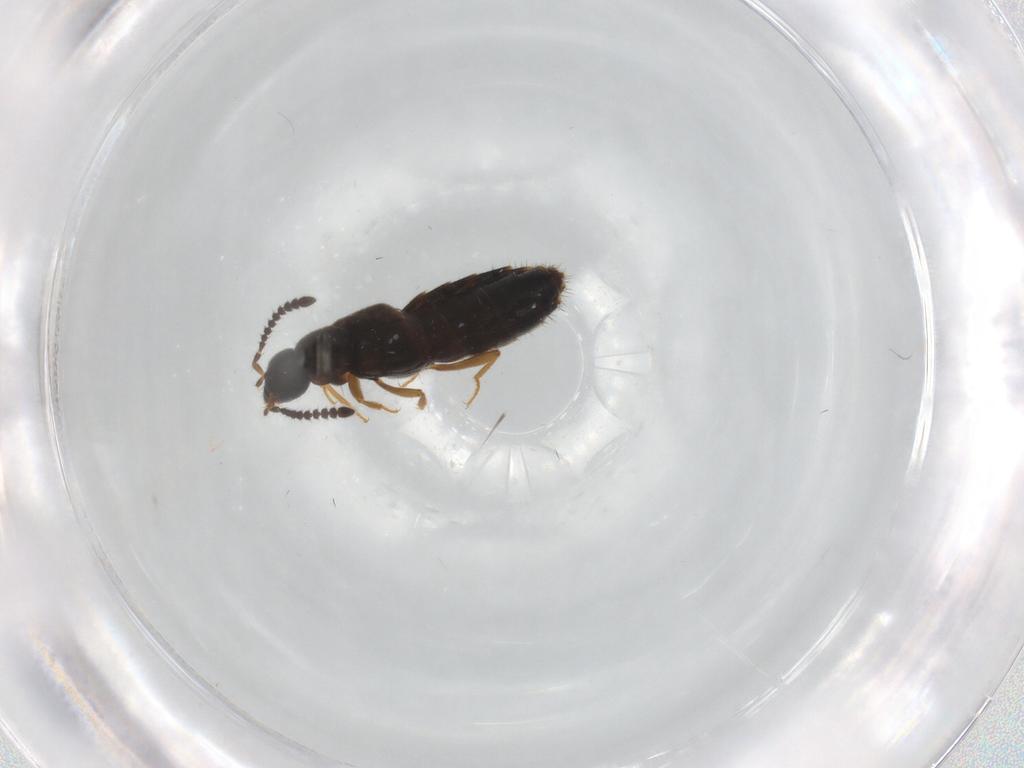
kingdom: Animalia
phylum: Arthropoda
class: Insecta
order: Coleoptera
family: Staphylinidae
